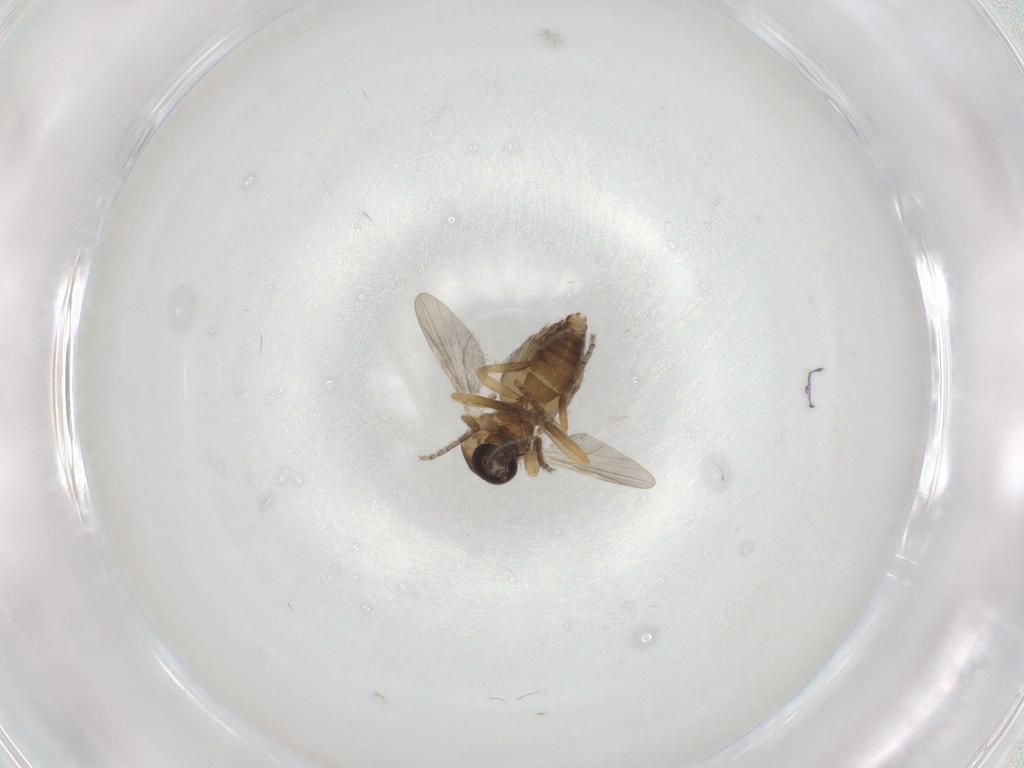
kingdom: Animalia
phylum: Arthropoda
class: Insecta
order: Diptera
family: Ceratopogonidae
